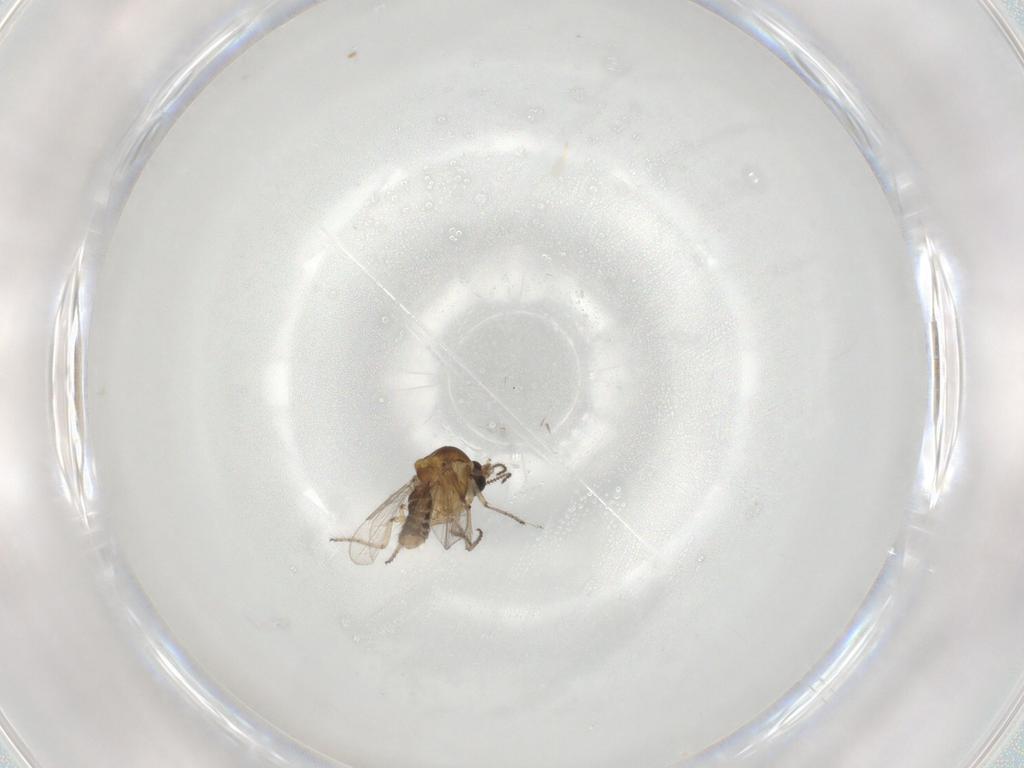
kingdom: Animalia
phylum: Arthropoda
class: Insecta
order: Diptera
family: Ceratopogonidae
